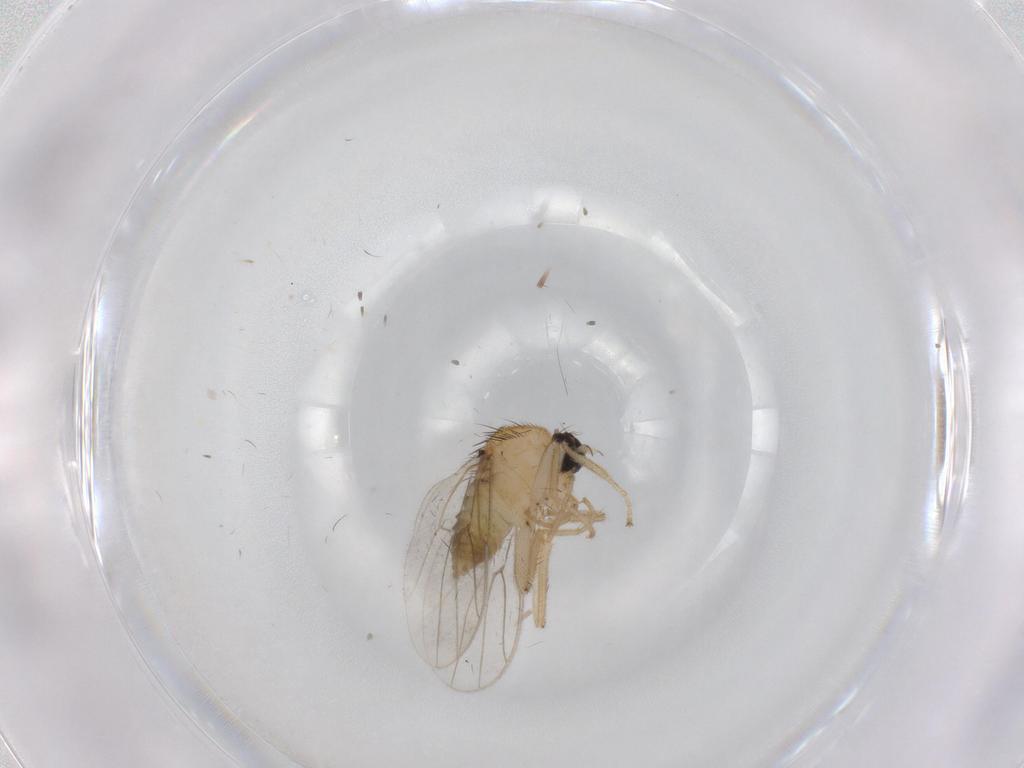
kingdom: Animalia
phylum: Arthropoda
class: Insecta
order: Diptera
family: Hybotidae
